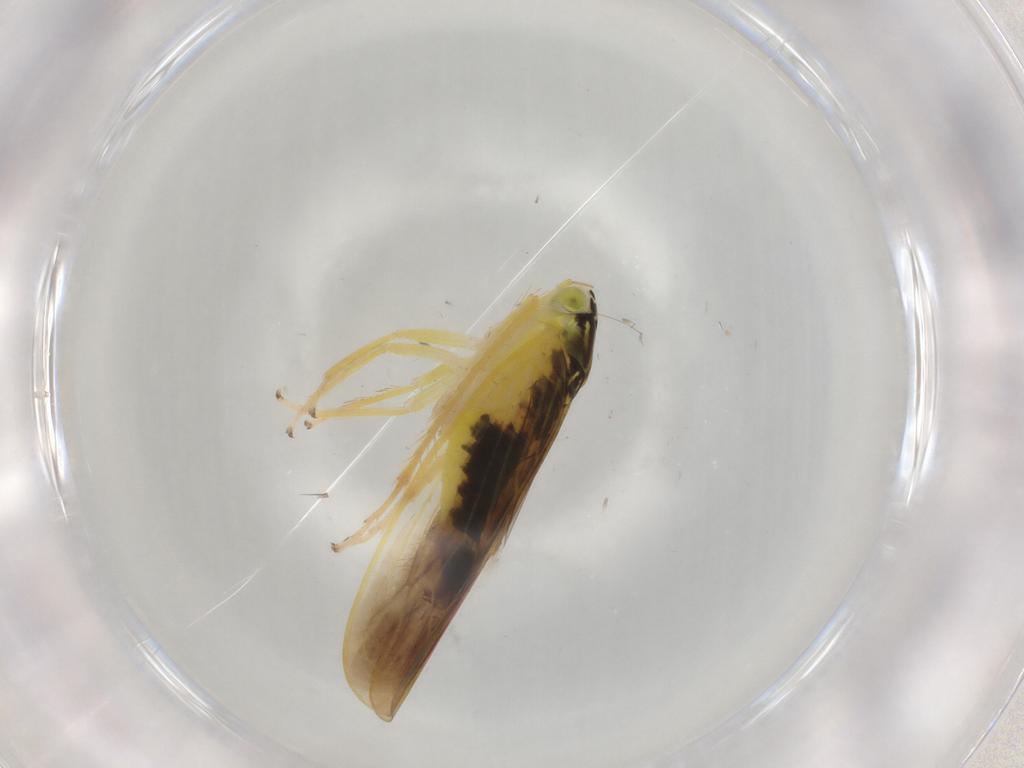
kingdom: Animalia
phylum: Arthropoda
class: Insecta
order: Hemiptera
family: Cicadellidae
